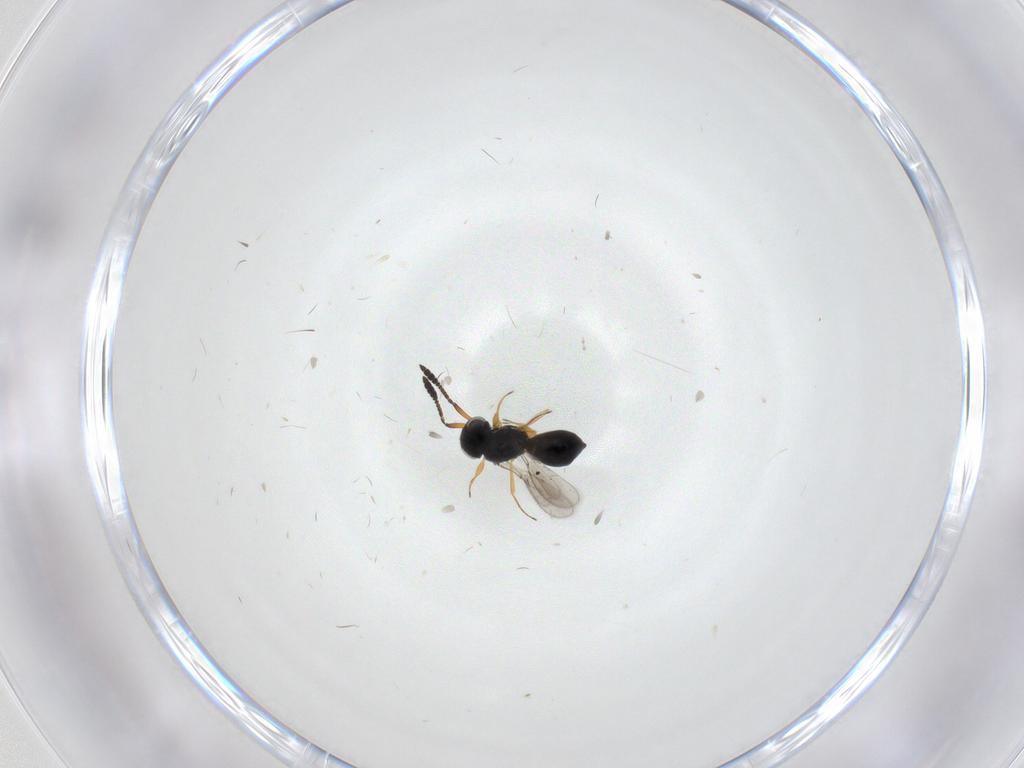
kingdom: Animalia
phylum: Arthropoda
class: Insecta
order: Hymenoptera
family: Scelionidae
